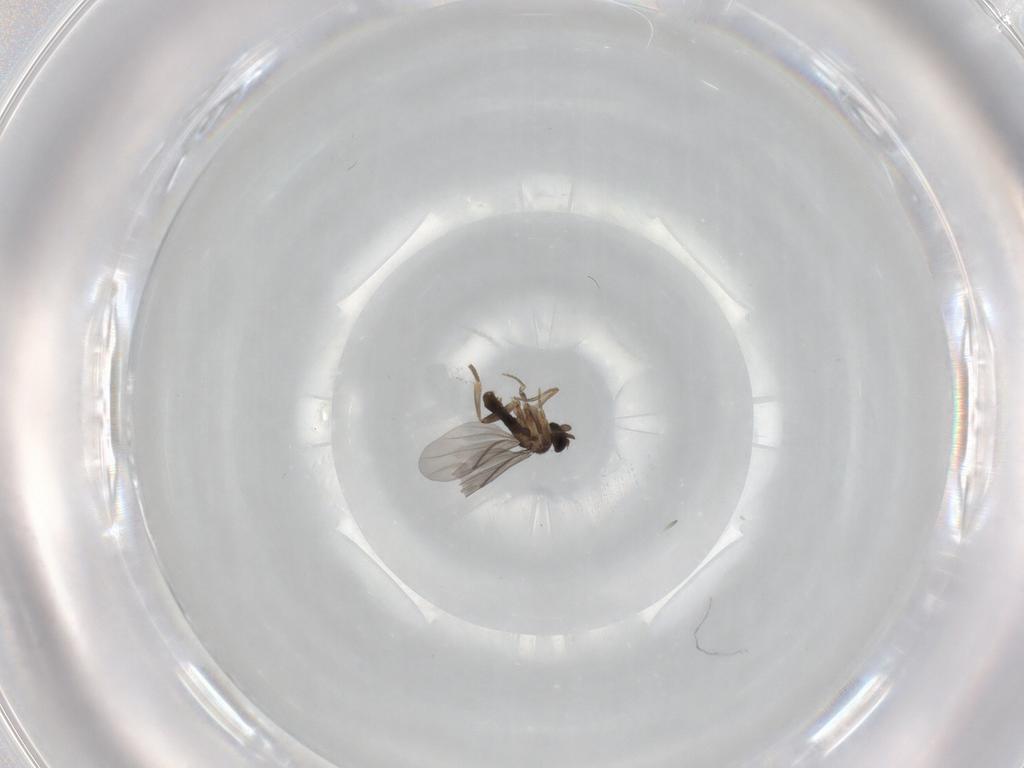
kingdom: Animalia
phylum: Arthropoda
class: Insecta
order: Diptera
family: Phoridae
